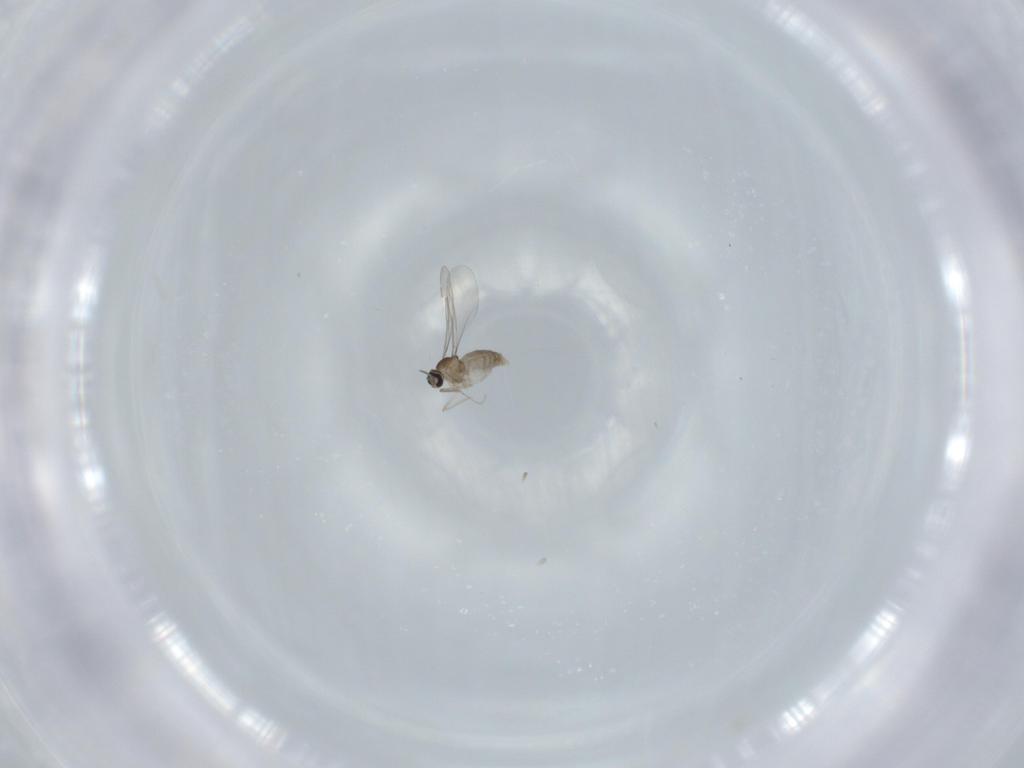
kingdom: Animalia
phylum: Arthropoda
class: Insecta
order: Diptera
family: Cecidomyiidae
